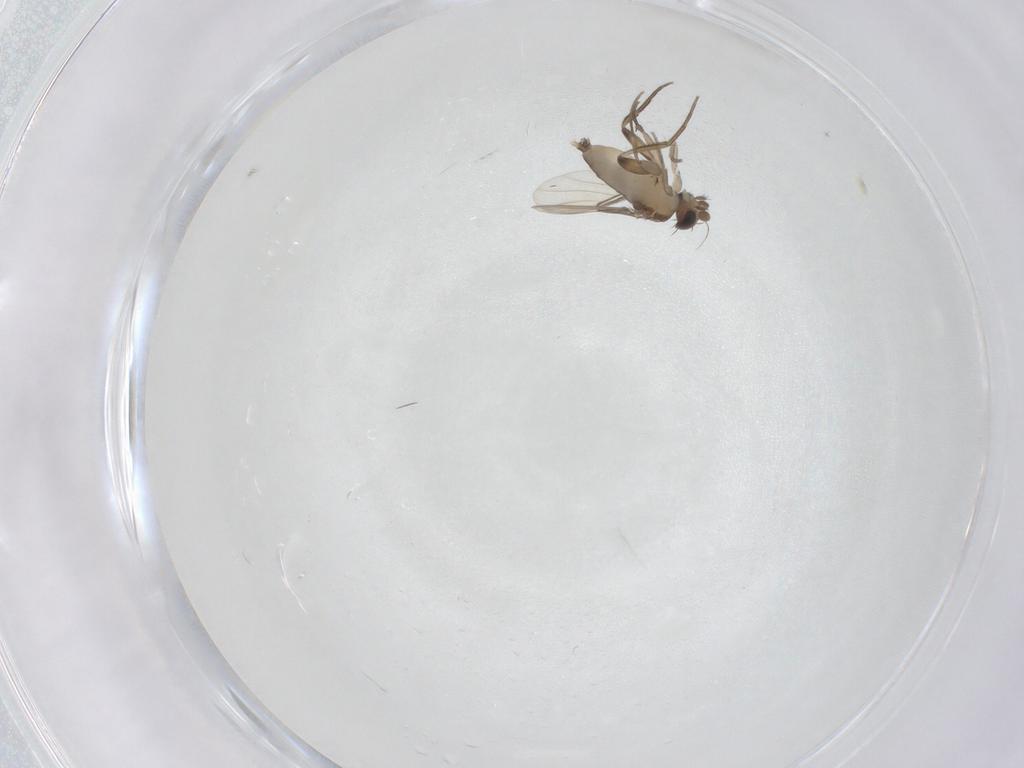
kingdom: Animalia
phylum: Arthropoda
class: Insecta
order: Diptera
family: Phoridae
